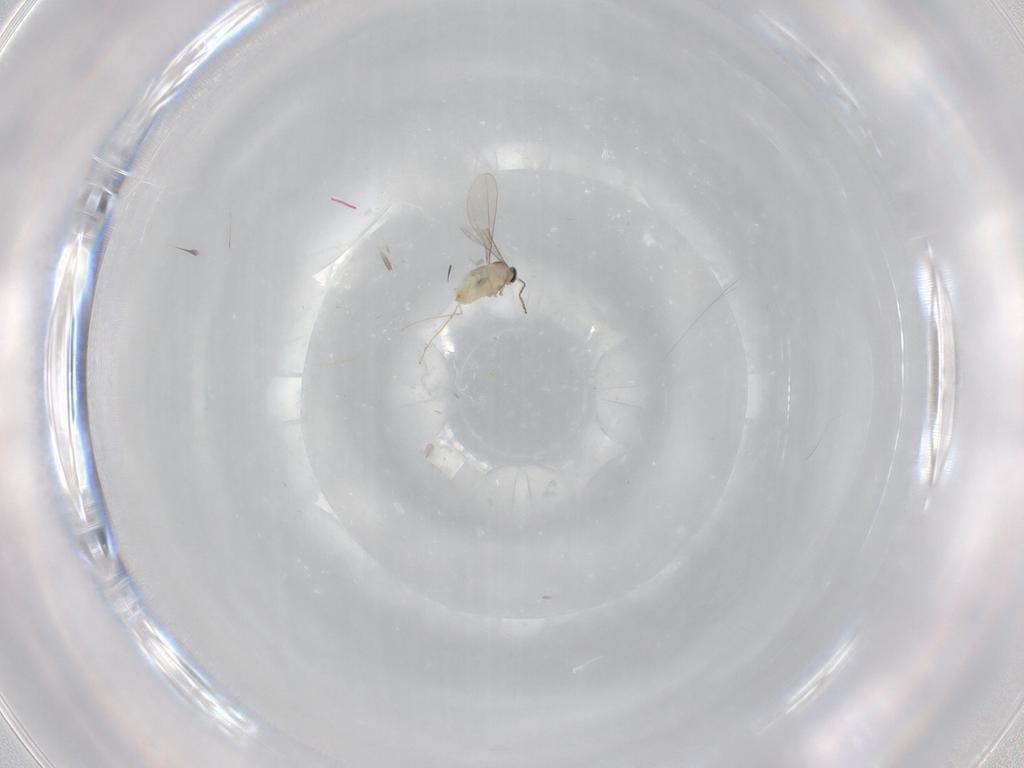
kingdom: Animalia
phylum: Arthropoda
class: Insecta
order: Diptera
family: Cecidomyiidae
